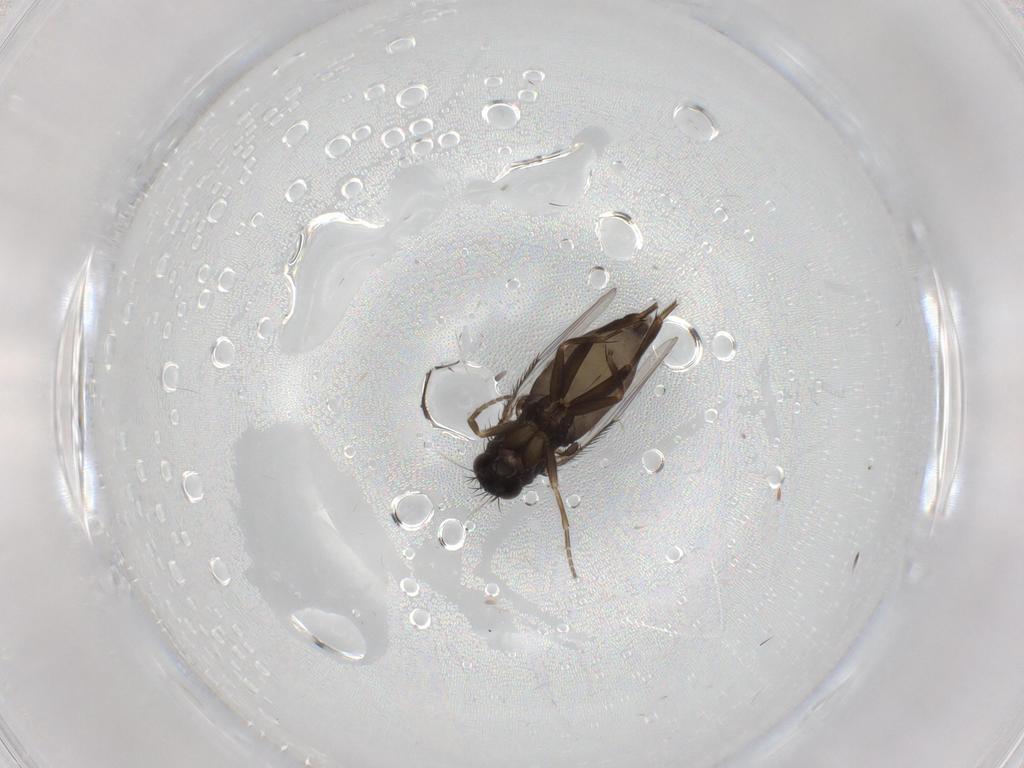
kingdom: Animalia
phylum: Arthropoda
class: Insecta
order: Diptera
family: Phoridae
